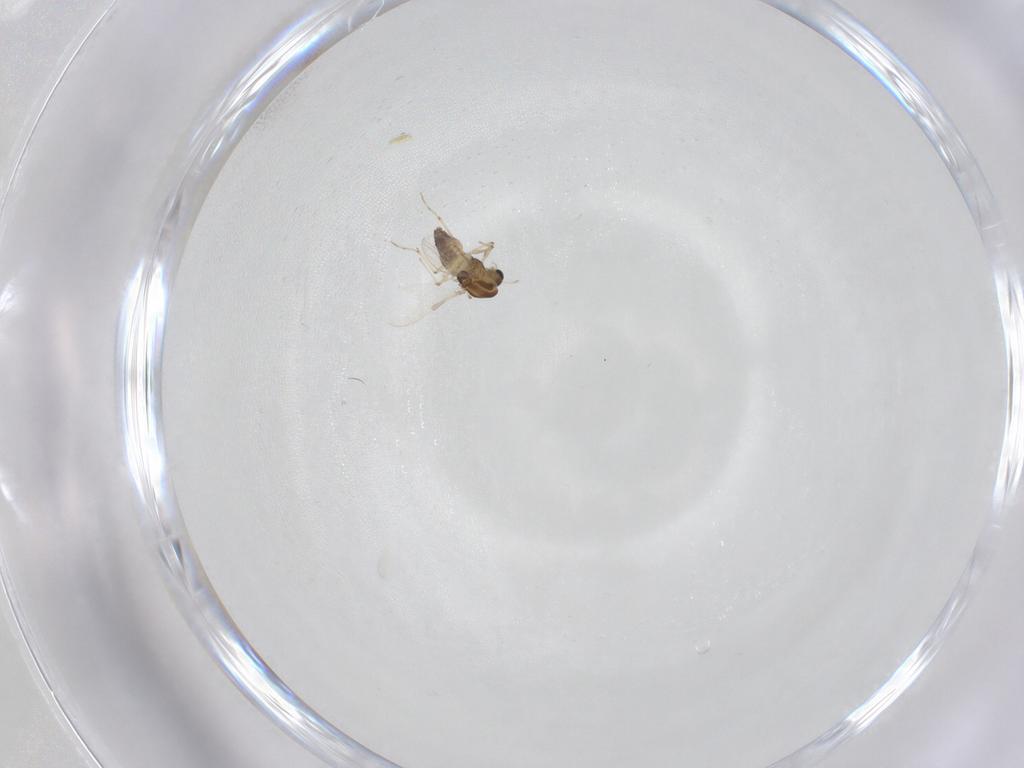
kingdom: Animalia
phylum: Arthropoda
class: Insecta
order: Diptera
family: Chironomidae
